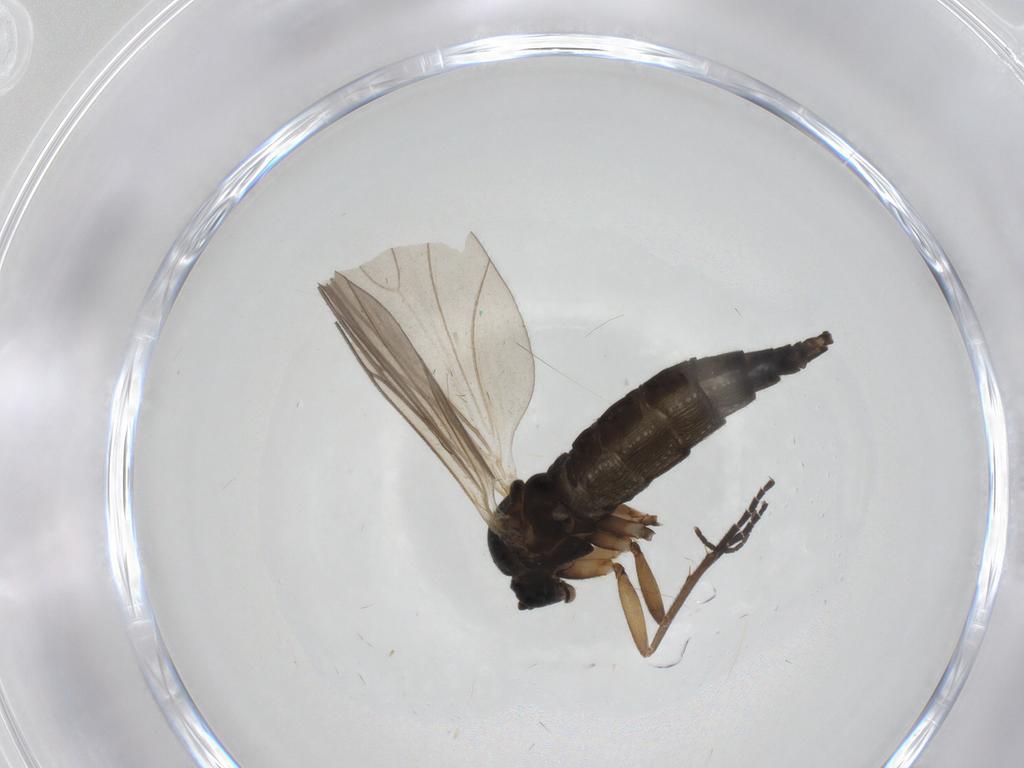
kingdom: Animalia
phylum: Arthropoda
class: Insecta
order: Diptera
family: Sciaridae
